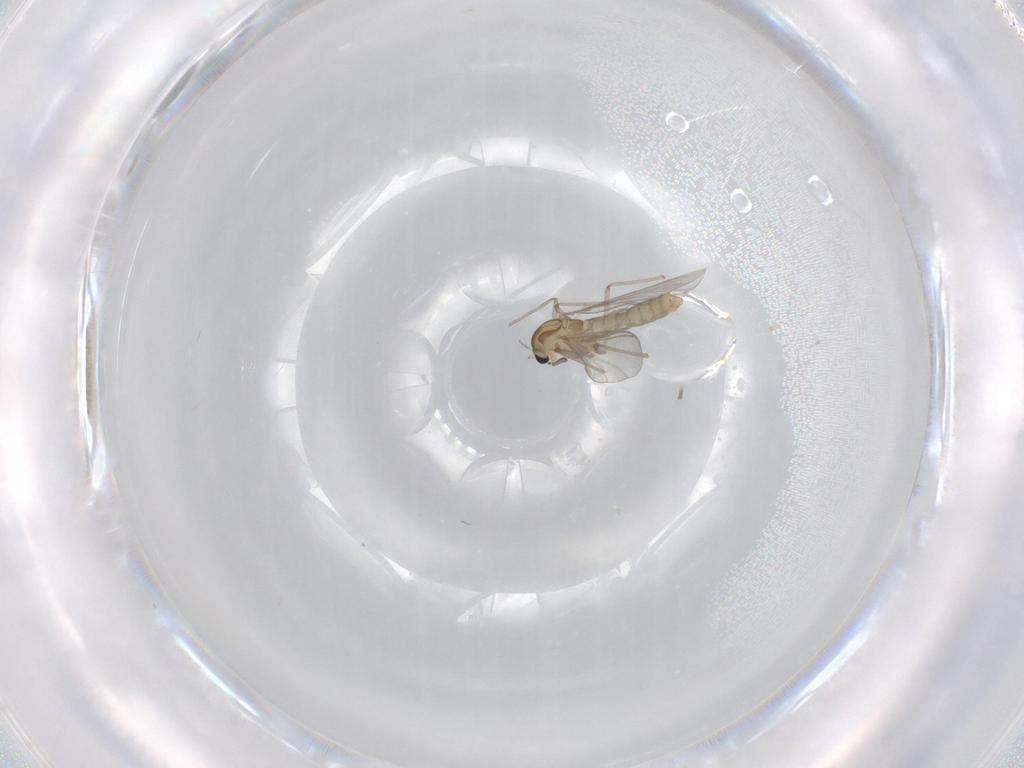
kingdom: Animalia
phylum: Arthropoda
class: Insecta
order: Diptera
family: Chironomidae
